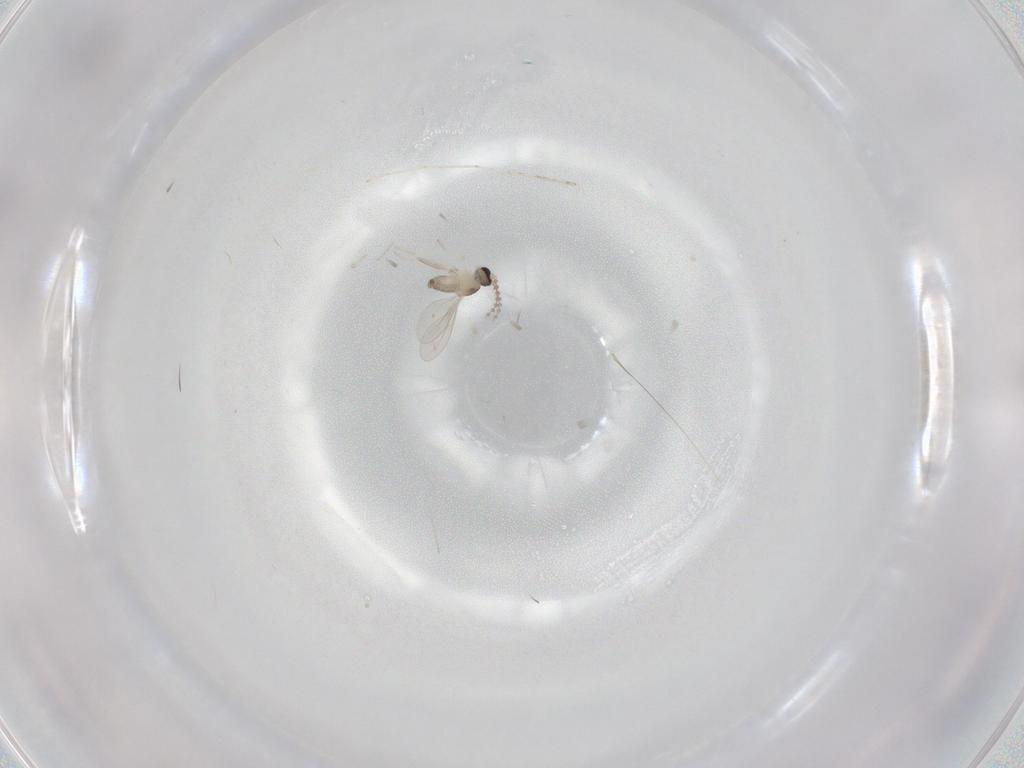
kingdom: Animalia
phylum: Arthropoda
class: Insecta
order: Diptera
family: Cecidomyiidae
